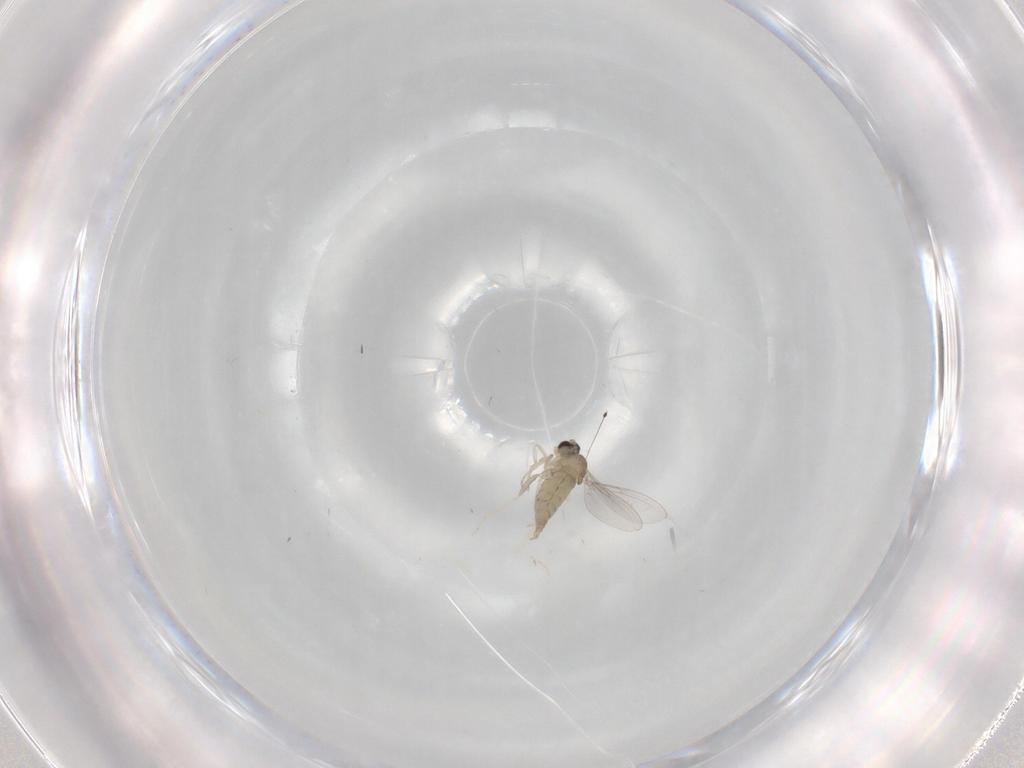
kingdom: Animalia
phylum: Arthropoda
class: Insecta
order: Diptera
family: Cecidomyiidae
